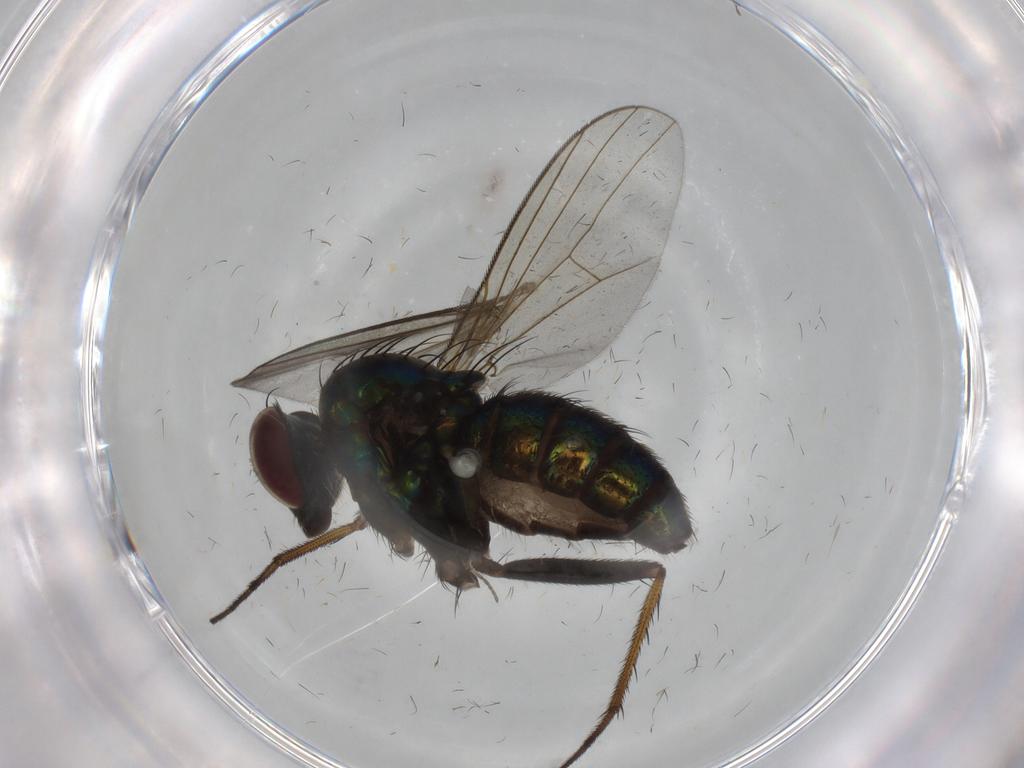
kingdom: Animalia
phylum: Arthropoda
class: Insecta
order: Diptera
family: Dolichopodidae
